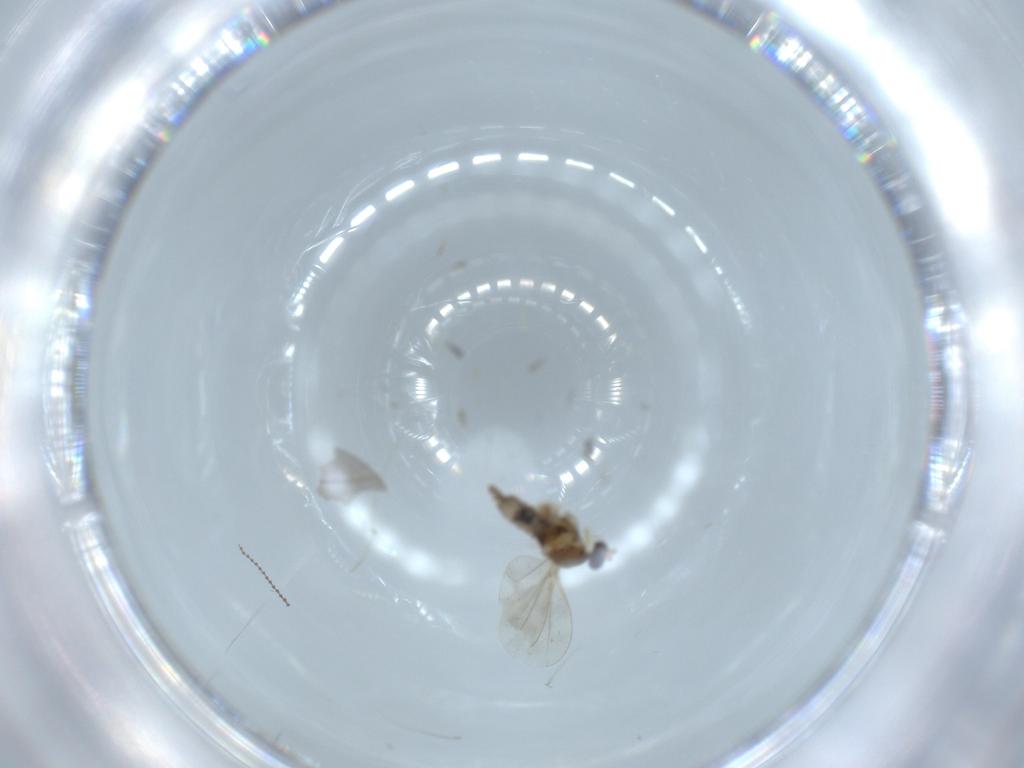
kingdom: Animalia
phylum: Arthropoda
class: Insecta
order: Diptera
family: Cecidomyiidae
